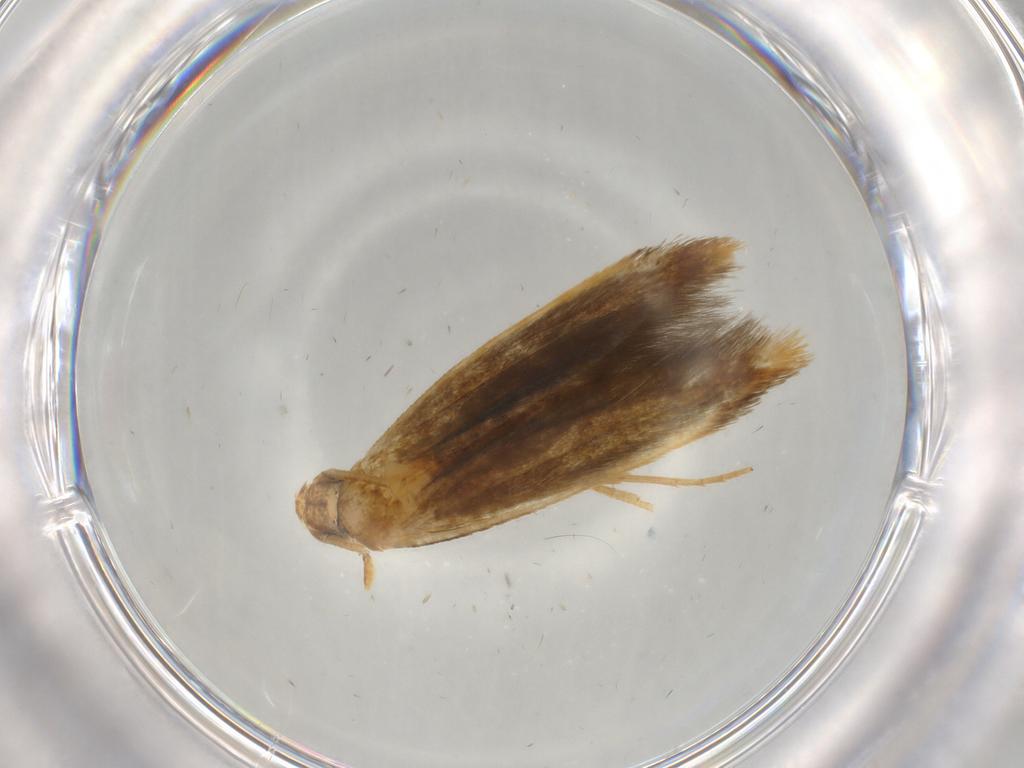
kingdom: Animalia
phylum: Arthropoda
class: Insecta
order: Lepidoptera
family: Tineidae
